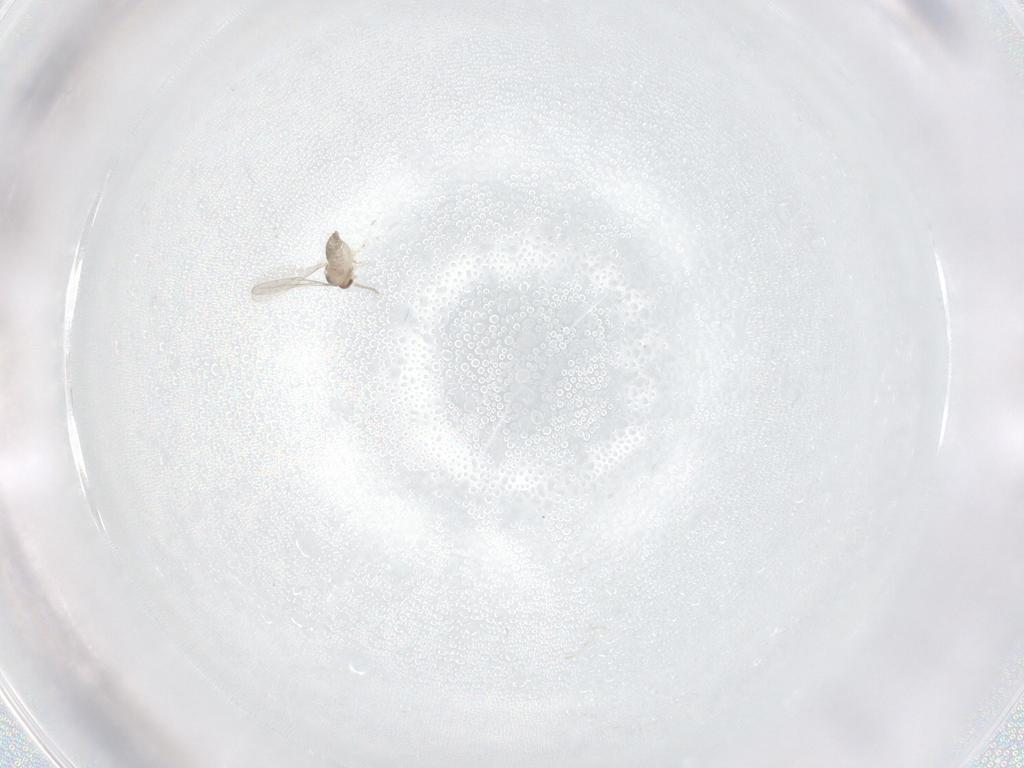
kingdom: Animalia
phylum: Arthropoda
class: Insecta
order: Diptera
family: Cecidomyiidae
